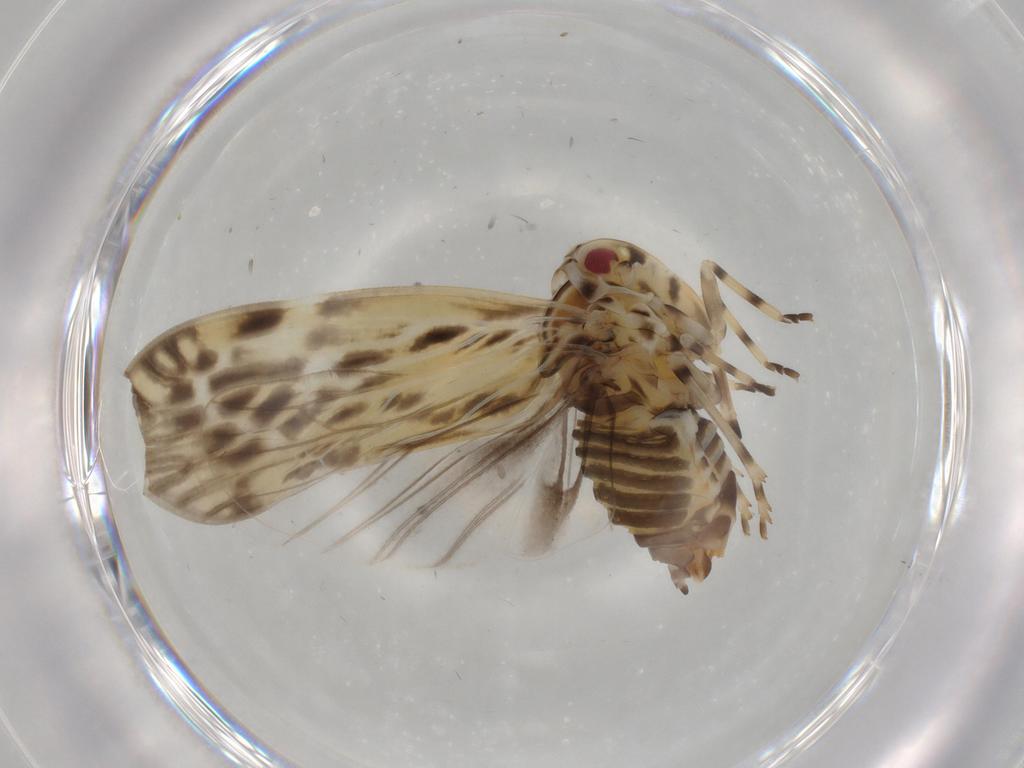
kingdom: Animalia
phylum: Arthropoda
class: Insecta
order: Hemiptera
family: Derbidae
